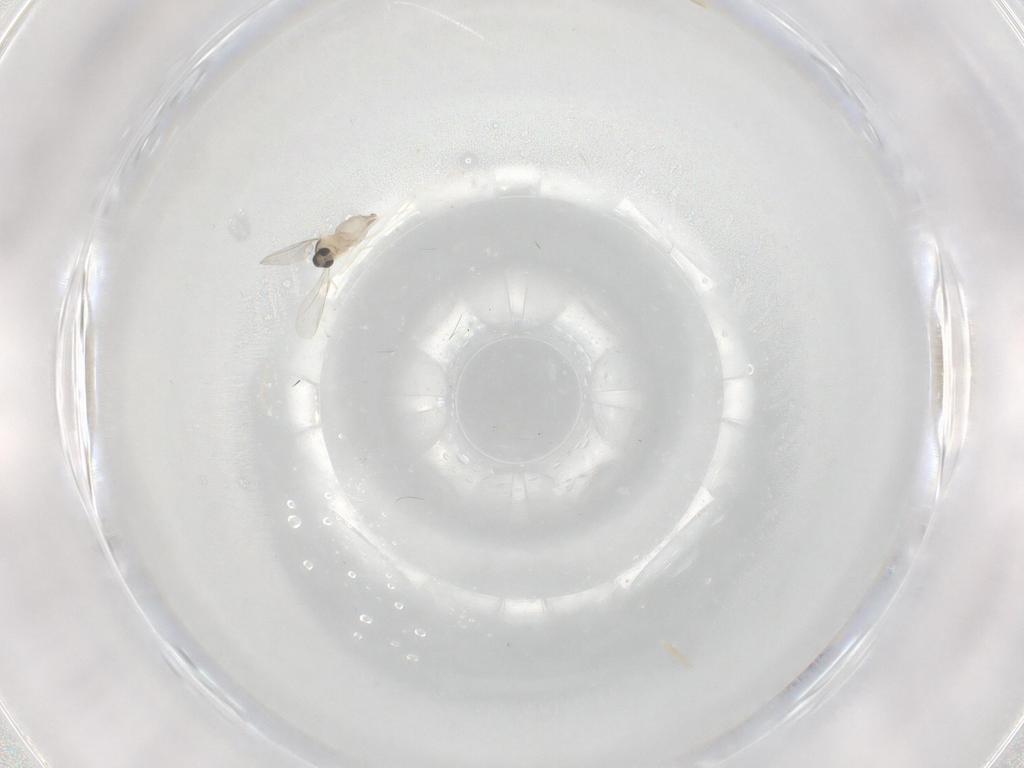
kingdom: Animalia
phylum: Arthropoda
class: Insecta
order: Diptera
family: Cecidomyiidae
